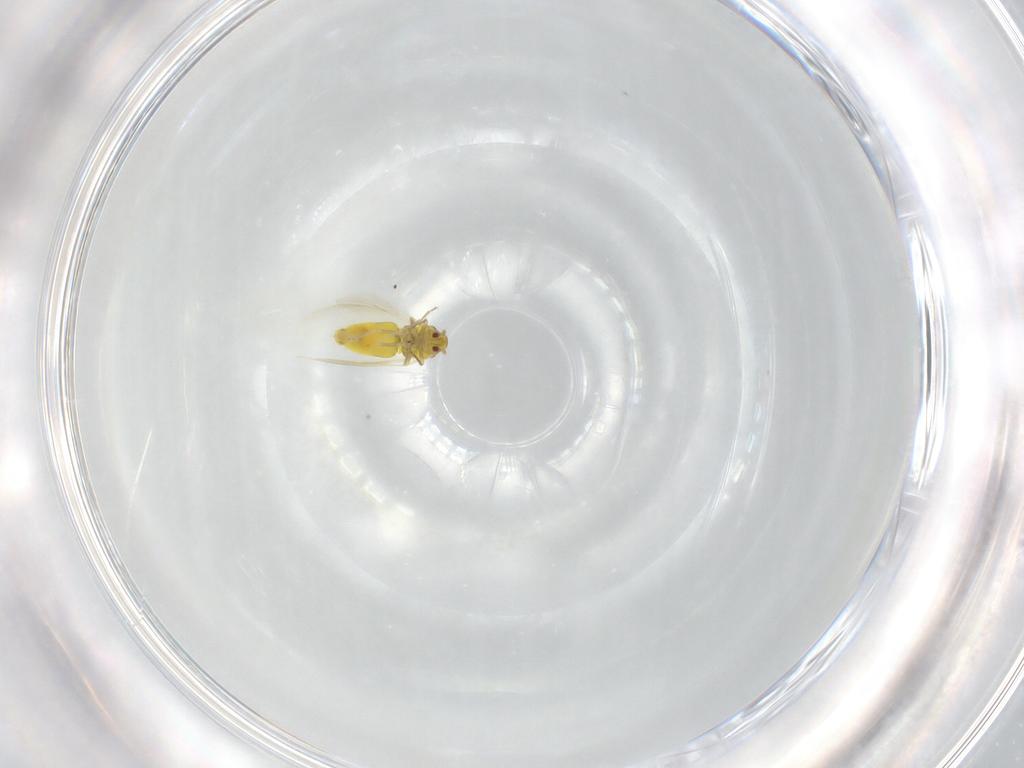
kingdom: Animalia
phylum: Arthropoda
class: Insecta
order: Hemiptera
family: Aleyrodidae
